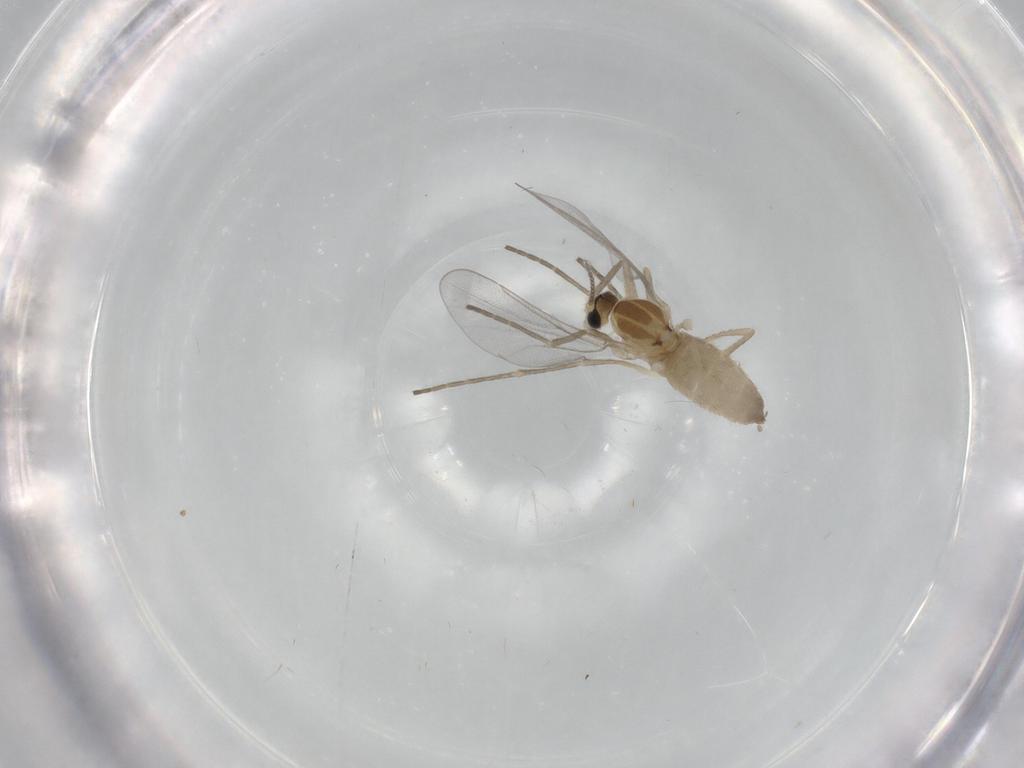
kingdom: Animalia
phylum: Arthropoda
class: Insecta
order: Diptera
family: Cecidomyiidae
